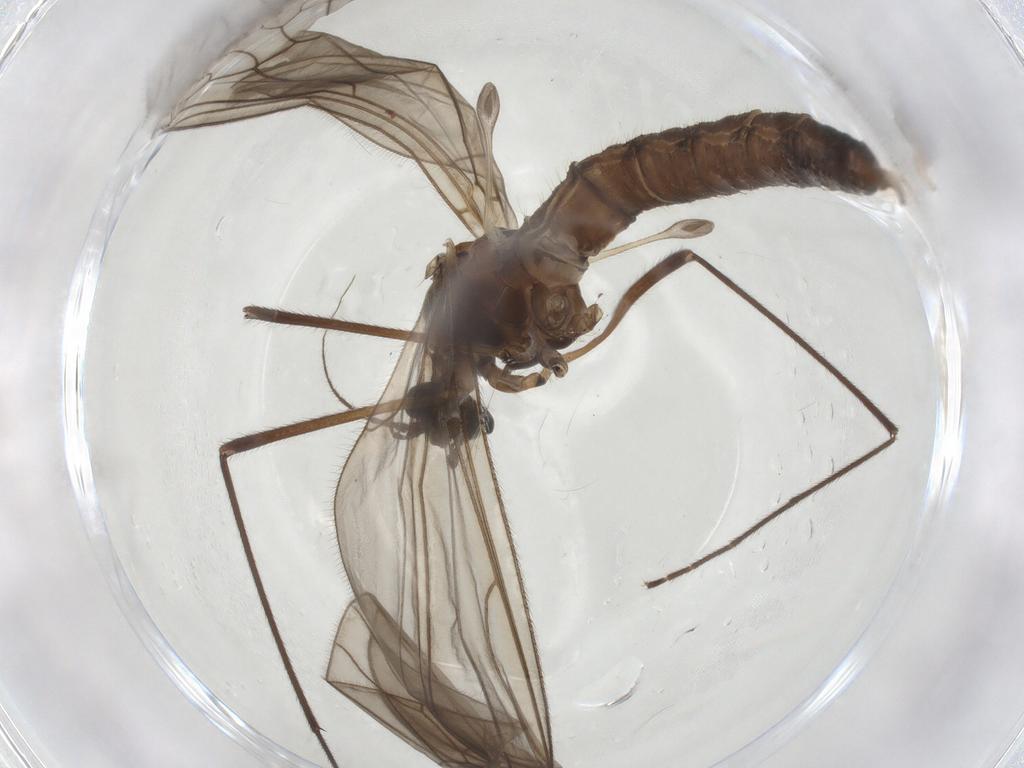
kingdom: Animalia
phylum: Arthropoda
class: Insecta
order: Diptera
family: Trichoceridae
